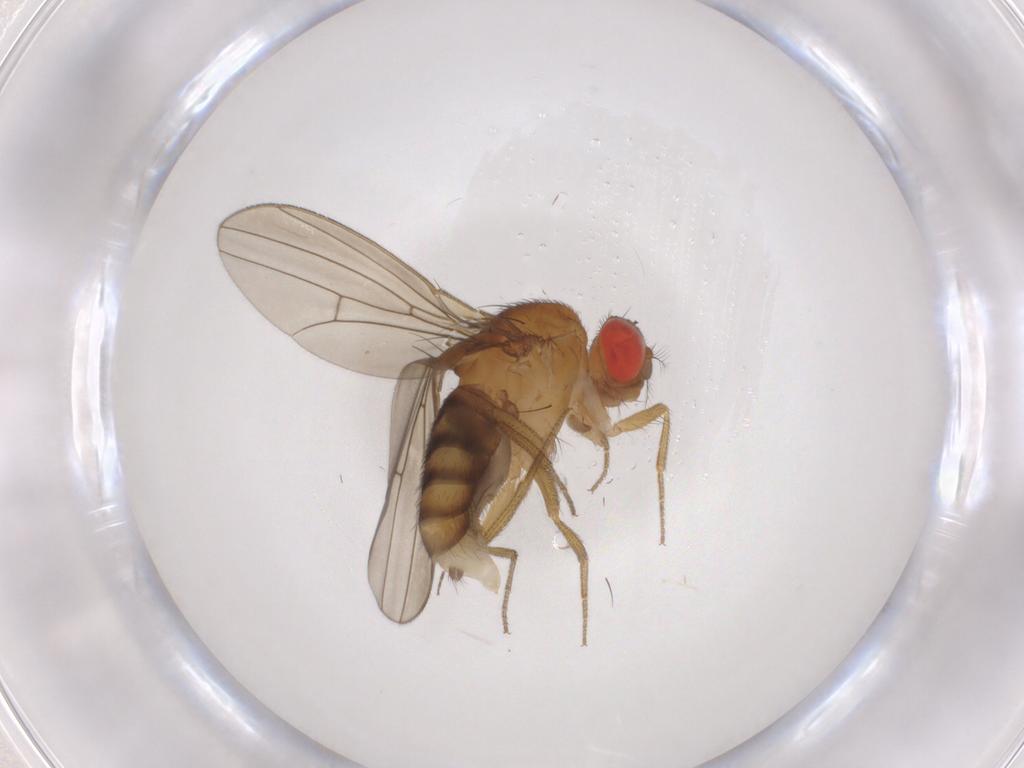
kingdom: Animalia
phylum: Arthropoda
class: Insecta
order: Diptera
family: Drosophilidae
